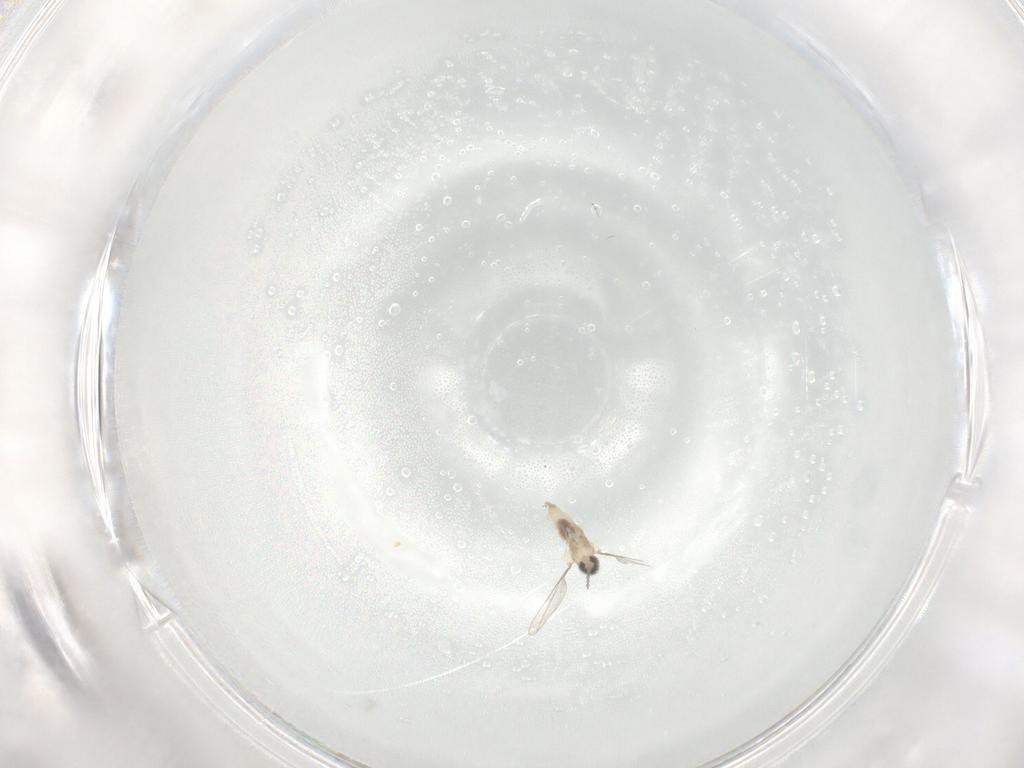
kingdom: Animalia
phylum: Arthropoda
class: Insecta
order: Diptera
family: Cecidomyiidae
